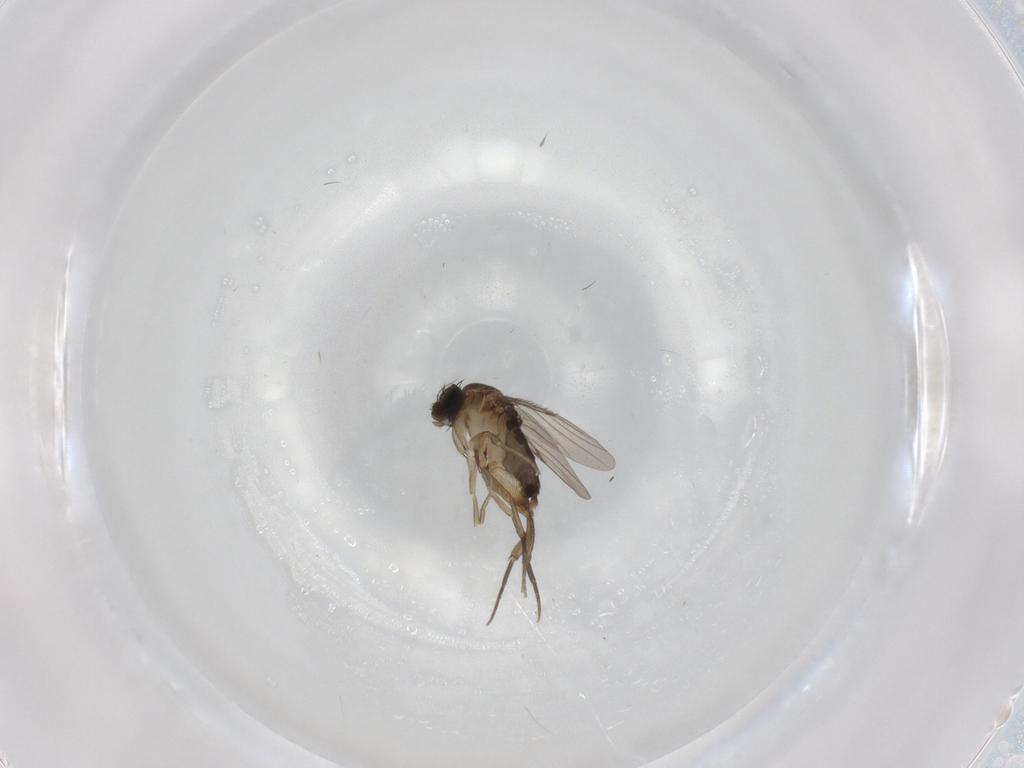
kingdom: Animalia
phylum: Arthropoda
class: Insecta
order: Diptera
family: Phoridae
